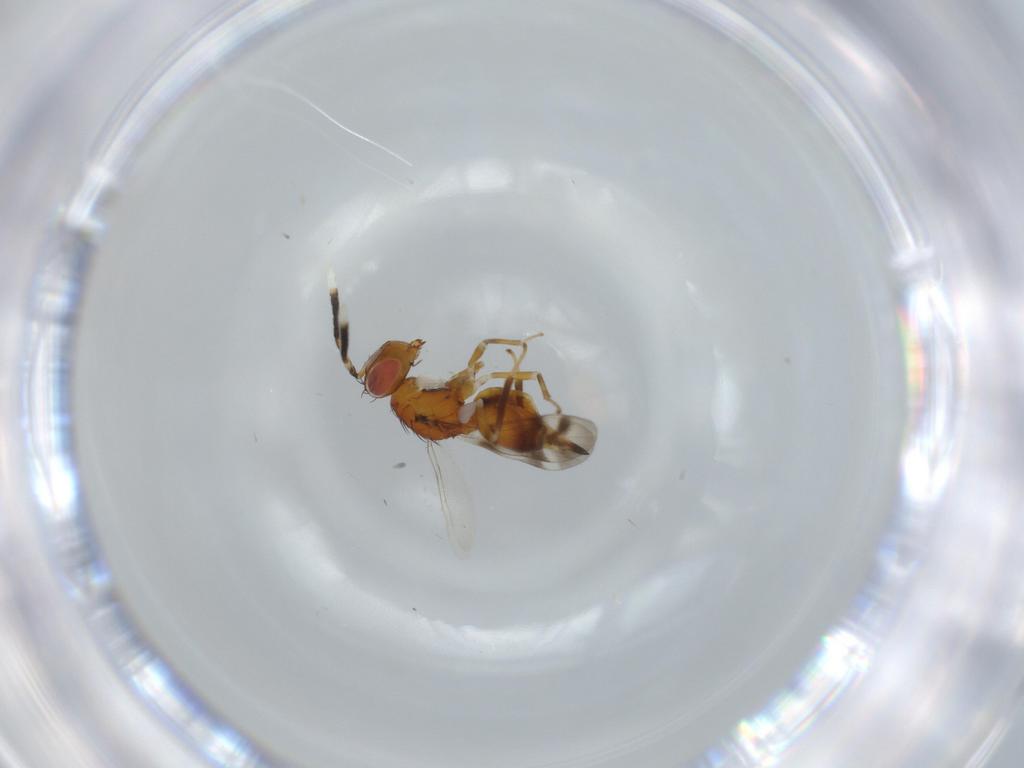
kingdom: Animalia
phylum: Arthropoda
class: Insecta
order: Hymenoptera
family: Diparidae
